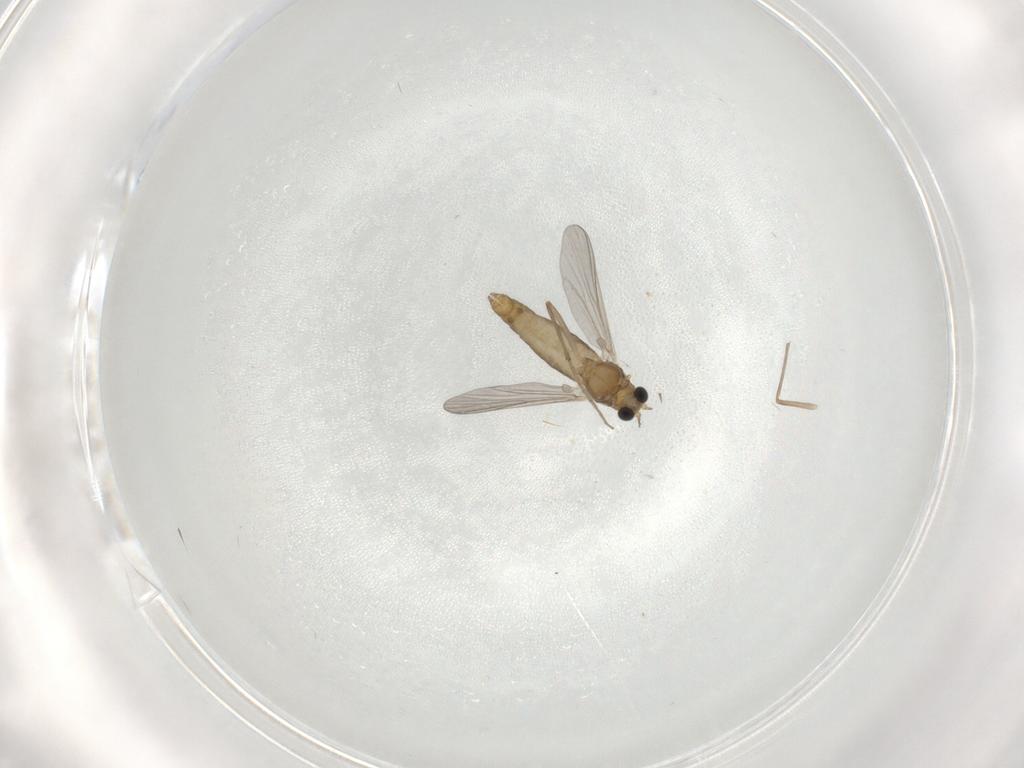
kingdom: Animalia
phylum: Arthropoda
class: Insecta
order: Diptera
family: Chironomidae
